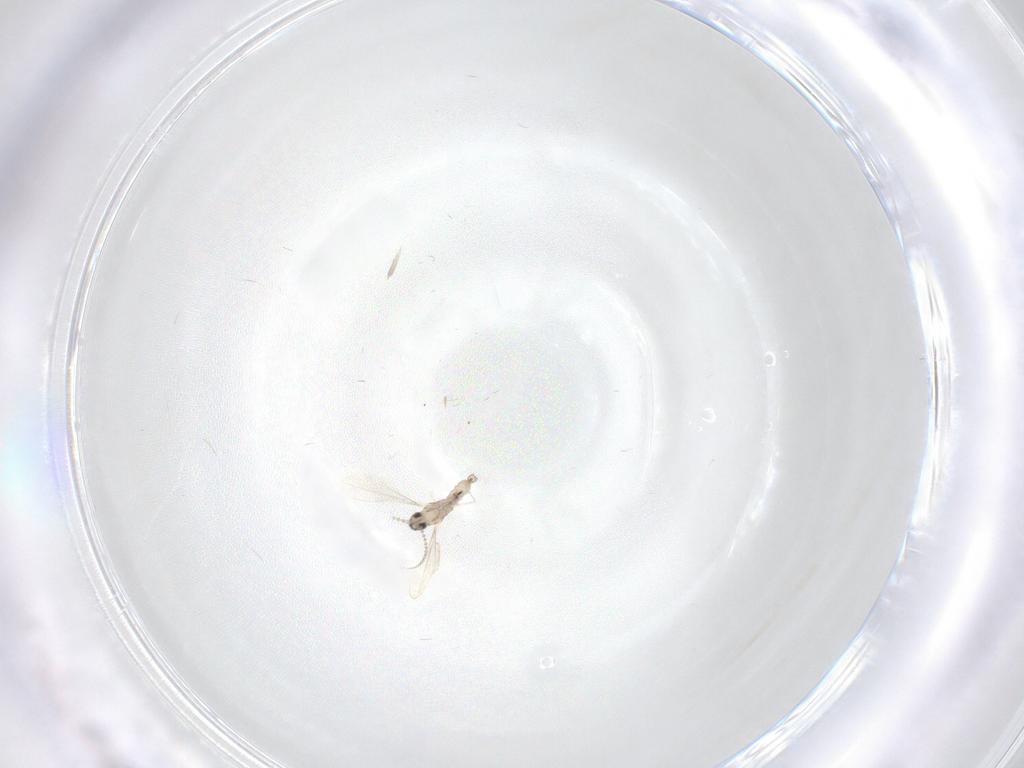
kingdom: Animalia
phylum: Arthropoda
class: Insecta
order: Diptera
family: Cecidomyiidae
